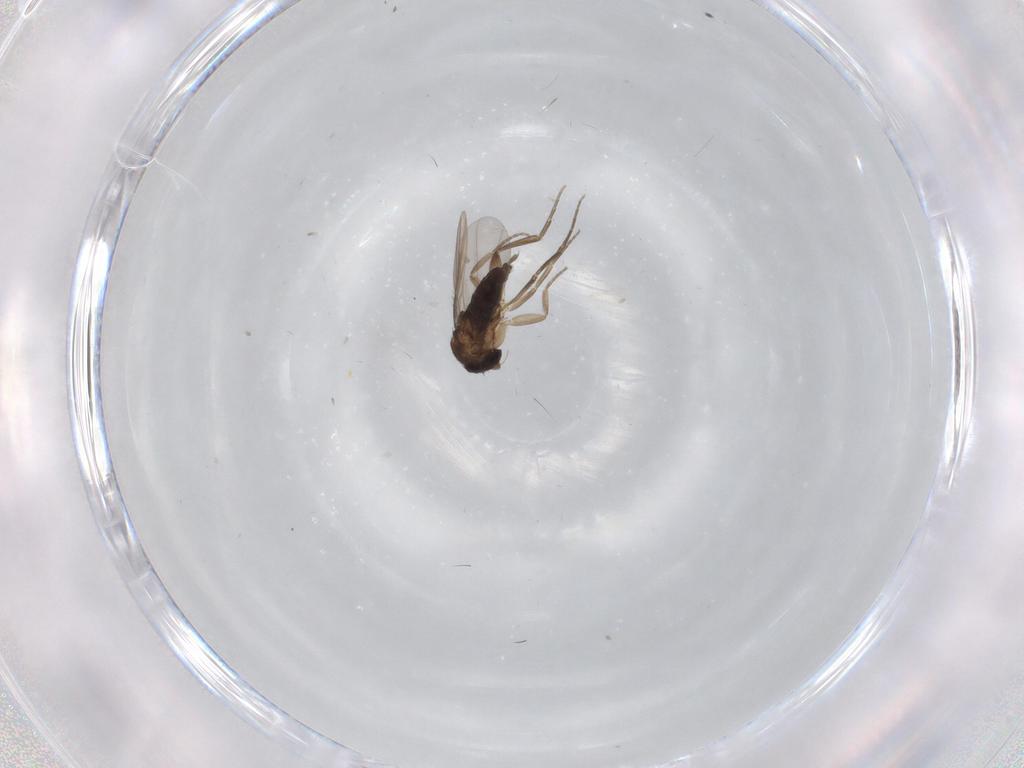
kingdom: Animalia
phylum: Arthropoda
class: Insecta
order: Diptera
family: Phoridae
